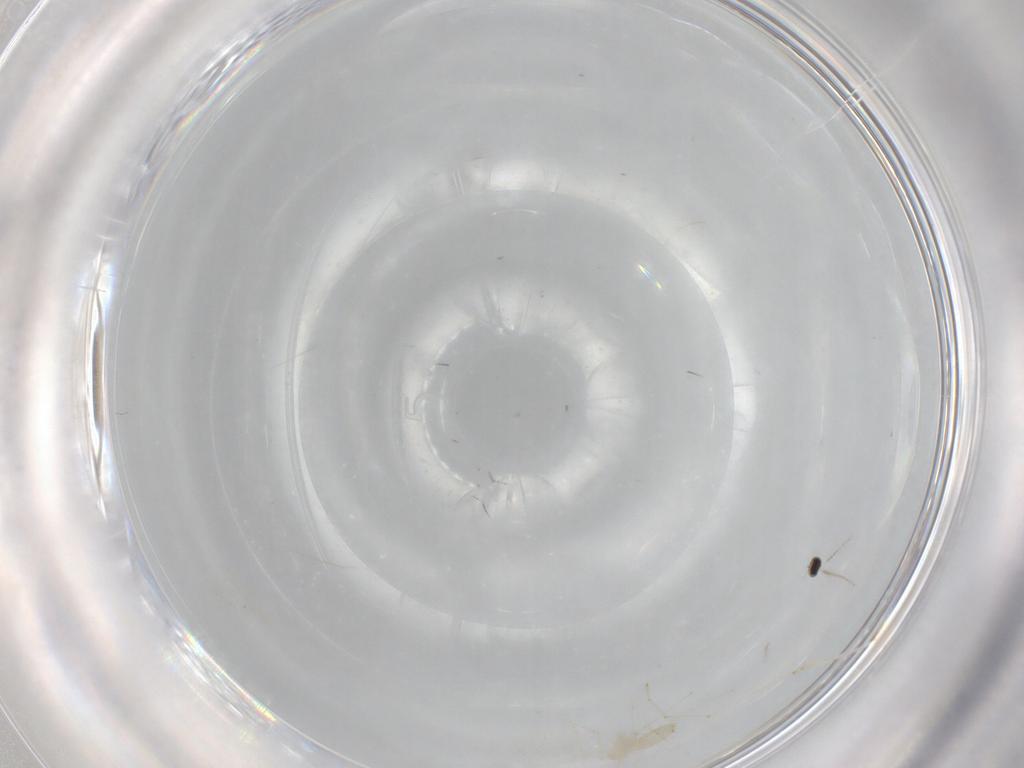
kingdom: Animalia
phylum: Arthropoda
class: Insecta
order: Diptera
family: Cecidomyiidae
